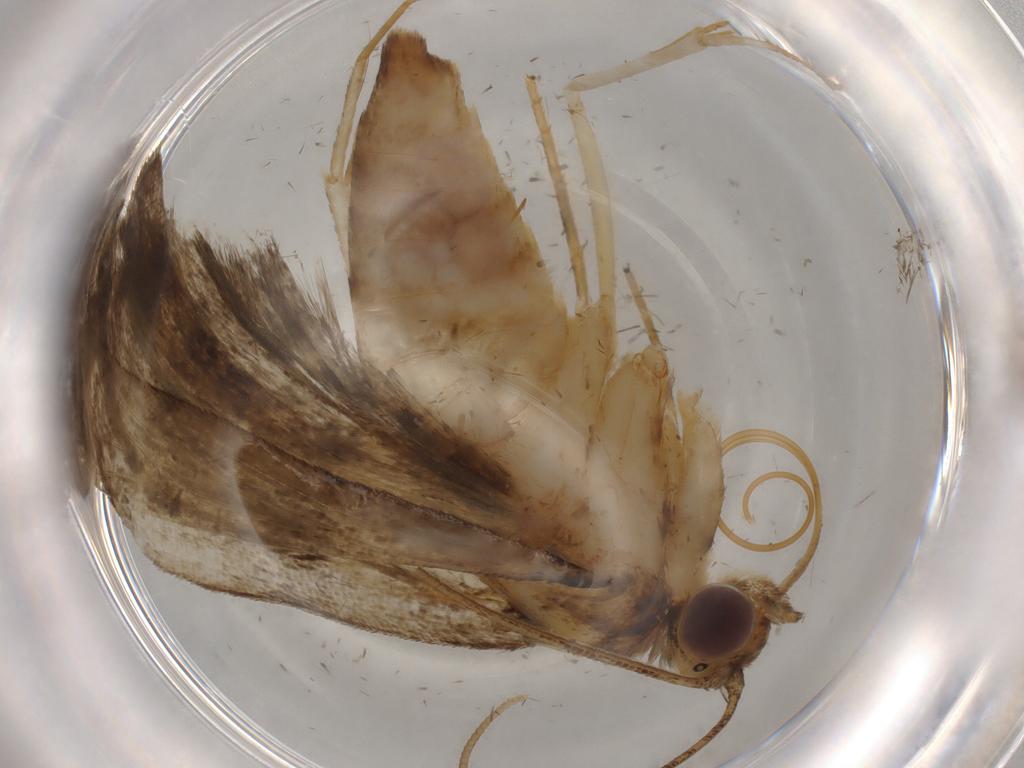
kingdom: Animalia
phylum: Arthropoda
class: Insecta
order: Lepidoptera
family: Crambidae
